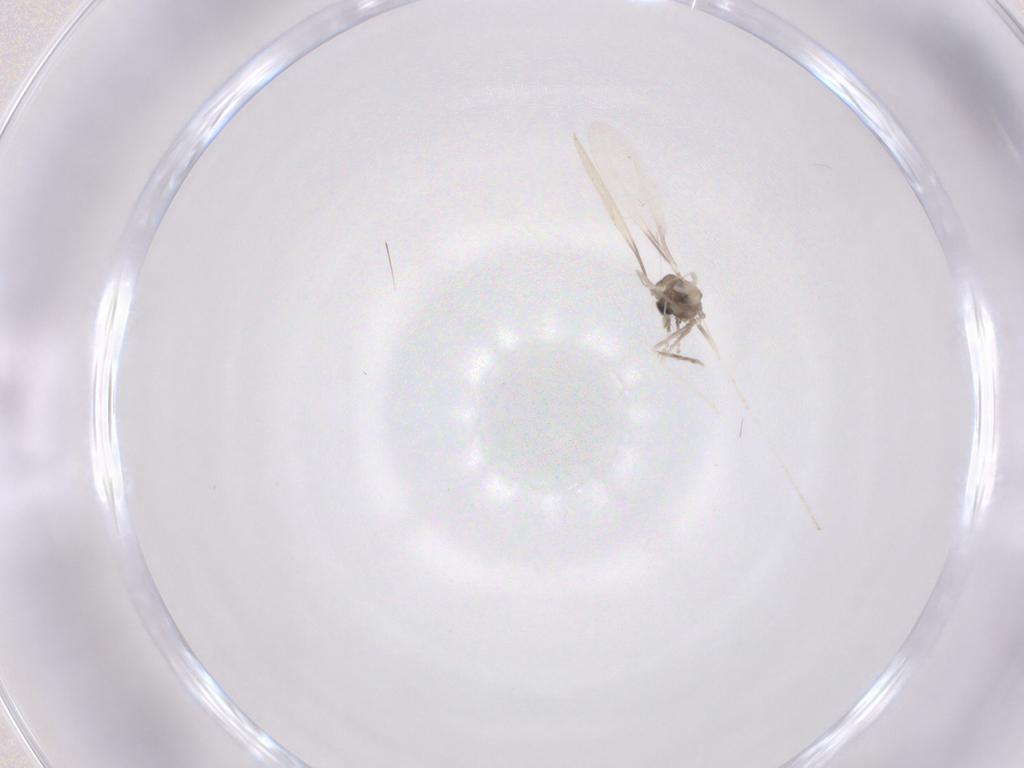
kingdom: Animalia
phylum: Arthropoda
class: Insecta
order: Diptera
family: Cecidomyiidae
